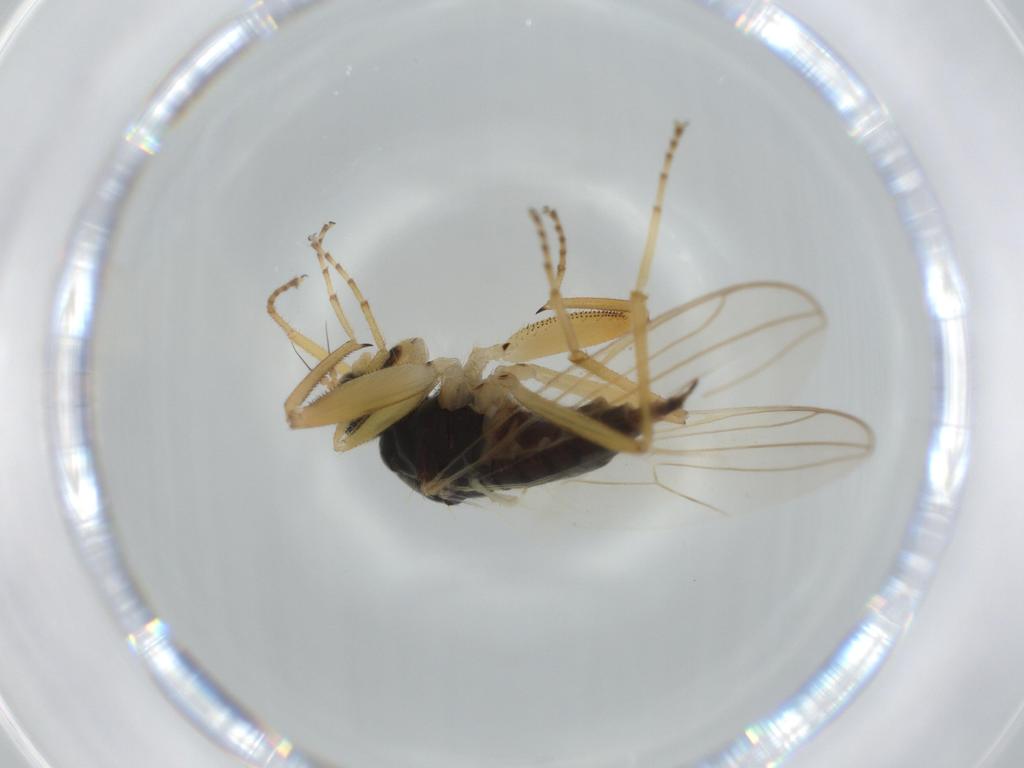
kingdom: Animalia
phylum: Arthropoda
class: Insecta
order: Diptera
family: Hybotidae
